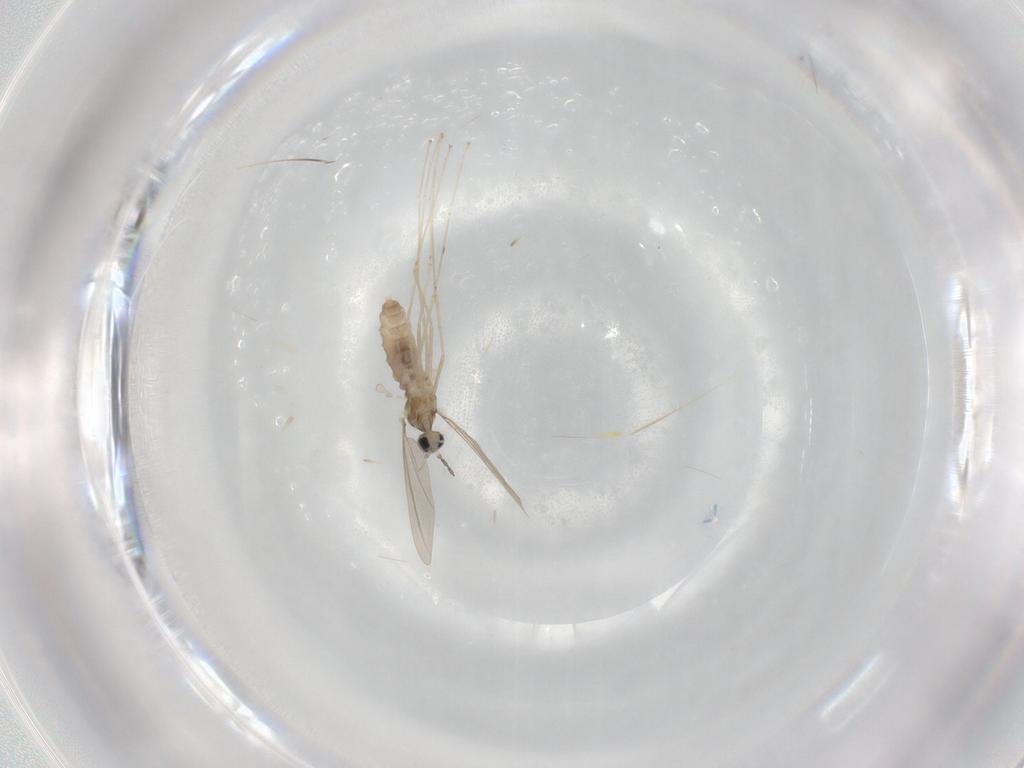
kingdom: Animalia
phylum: Arthropoda
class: Insecta
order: Diptera
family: Cecidomyiidae
